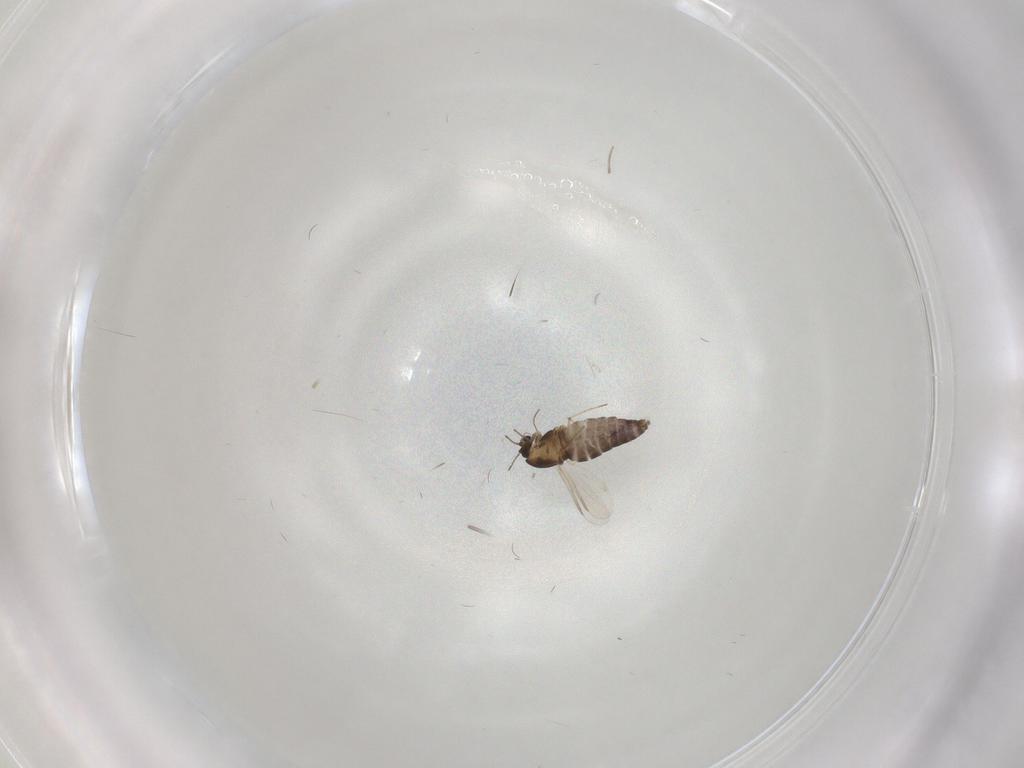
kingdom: Animalia
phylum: Arthropoda
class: Insecta
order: Diptera
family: Chironomidae
